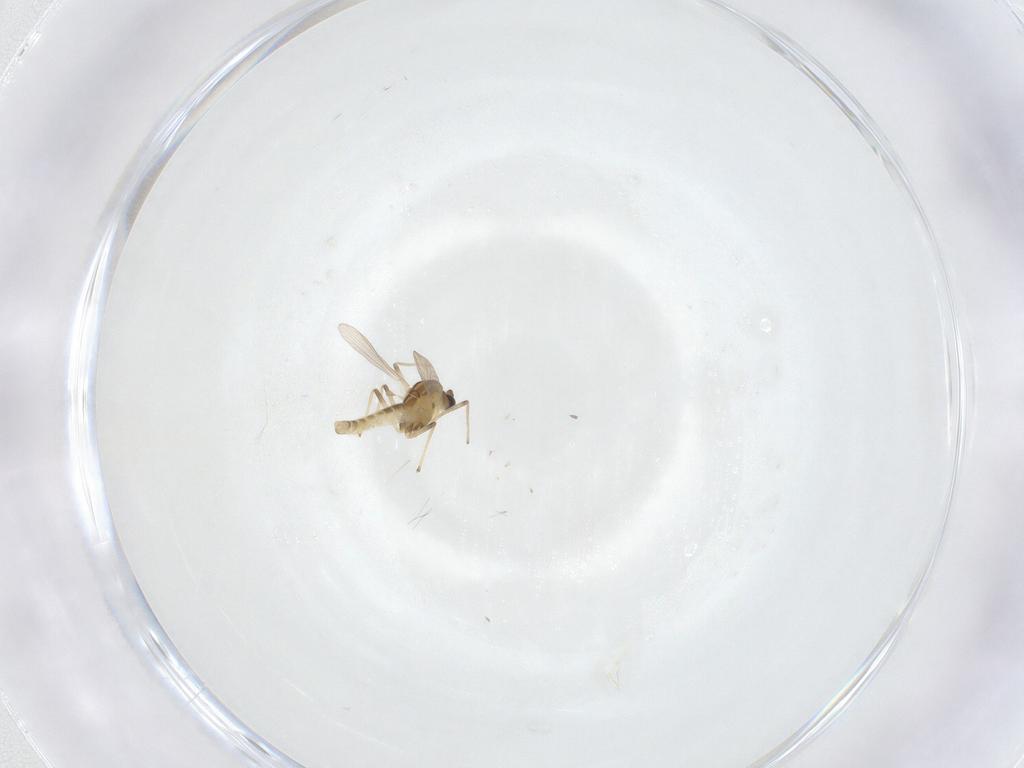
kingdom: Animalia
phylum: Arthropoda
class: Insecta
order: Diptera
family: Chironomidae
